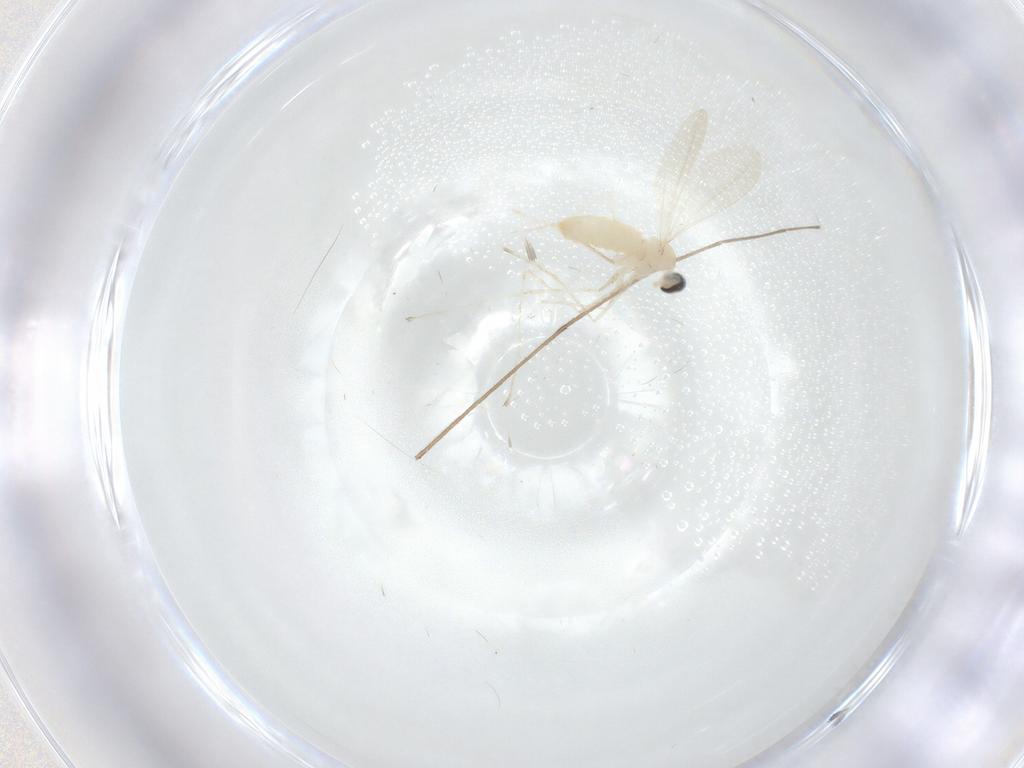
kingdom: Animalia
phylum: Arthropoda
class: Insecta
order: Diptera
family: Cecidomyiidae
